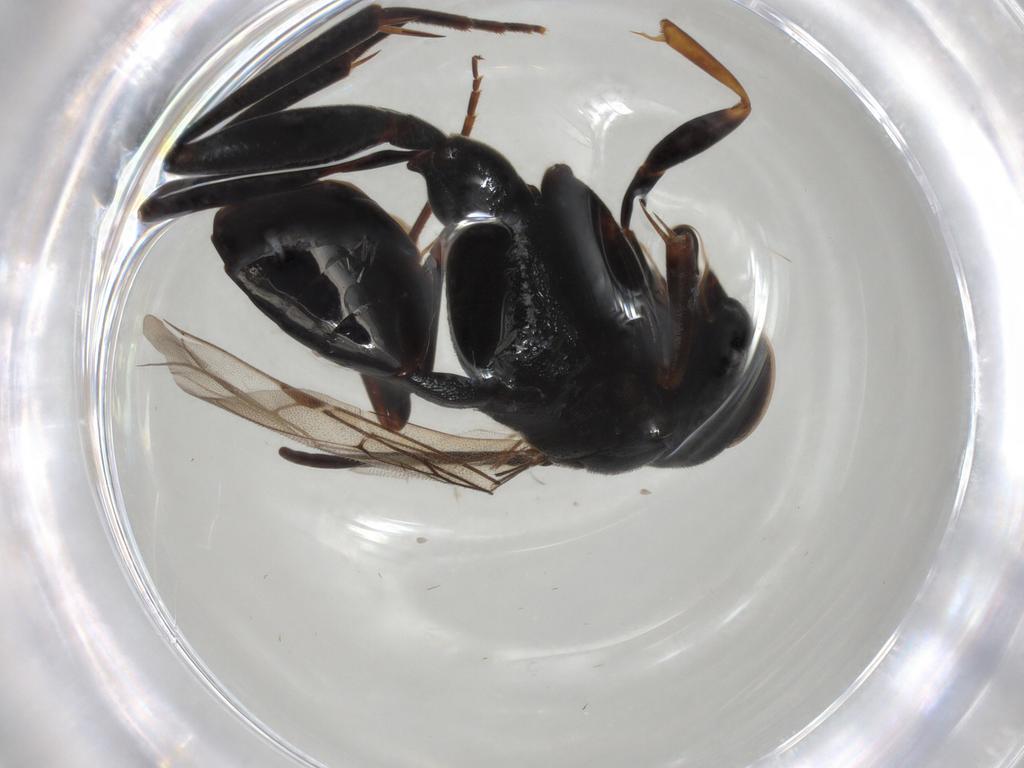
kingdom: Animalia
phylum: Arthropoda
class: Insecta
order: Hymenoptera
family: Evaniidae
